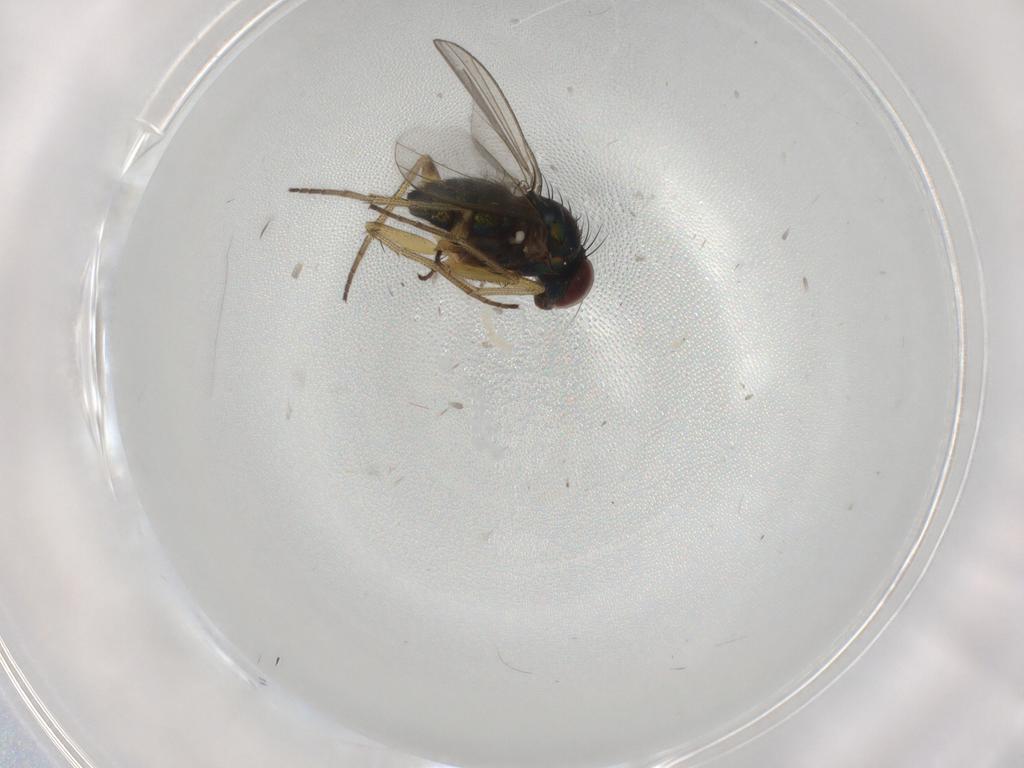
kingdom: Animalia
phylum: Arthropoda
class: Insecta
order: Diptera
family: Dolichopodidae
